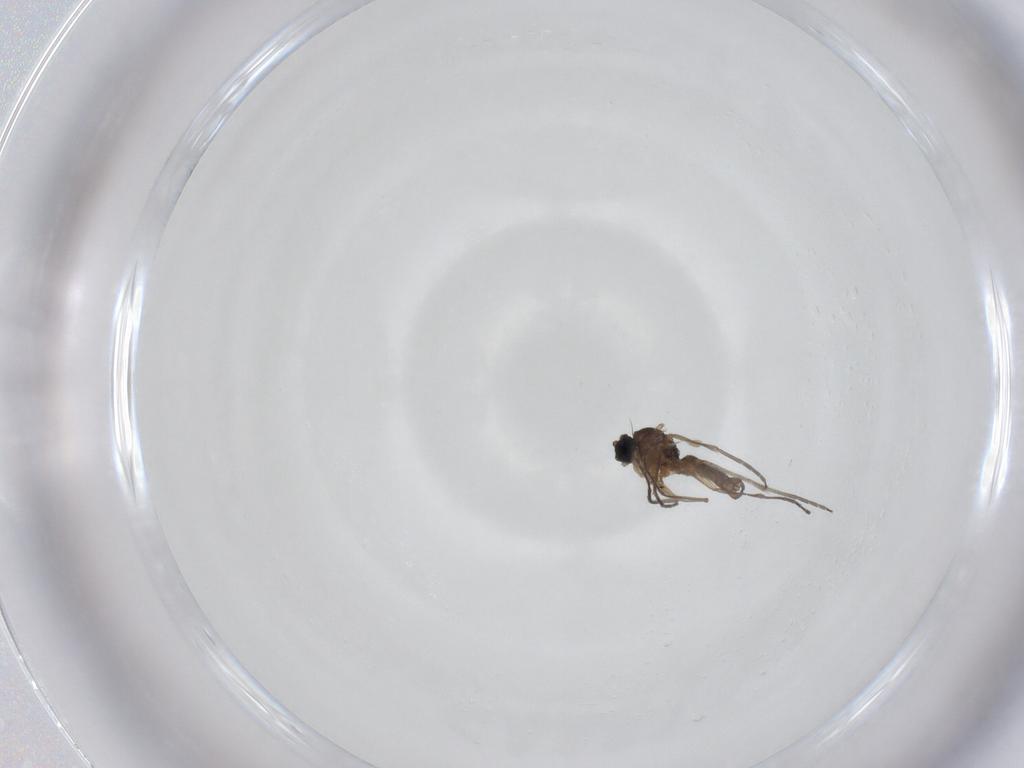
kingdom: Animalia
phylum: Arthropoda
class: Insecta
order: Diptera
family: Sciaridae
